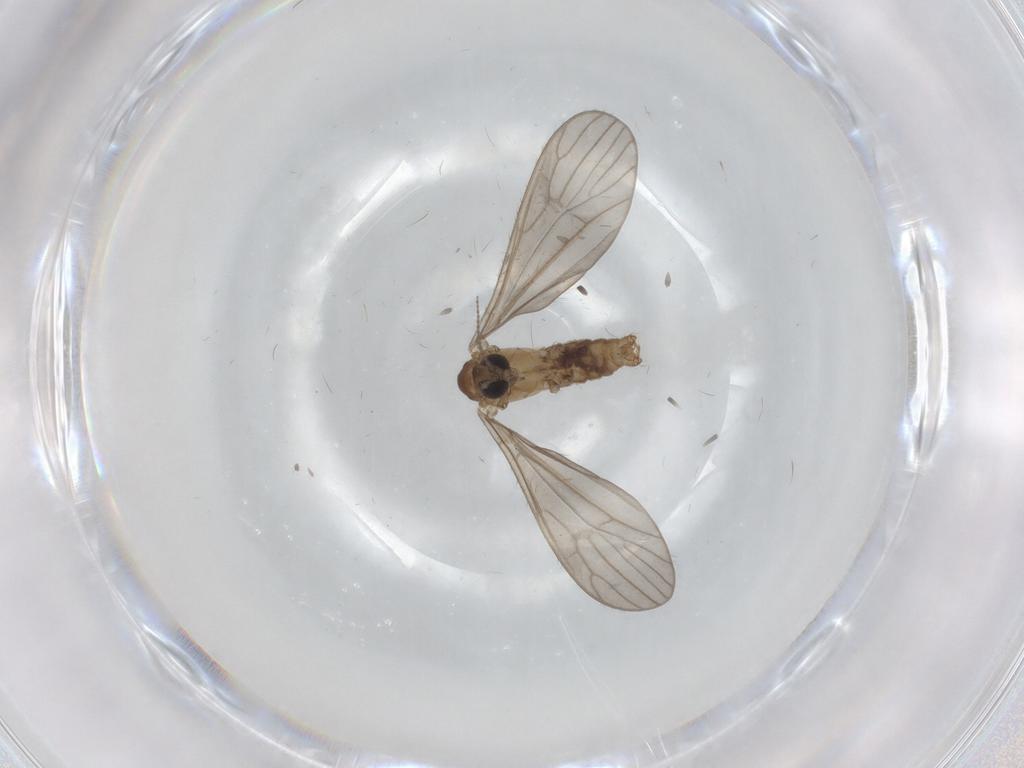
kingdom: Animalia
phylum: Arthropoda
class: Insecta
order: Diptera
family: Limoniidae
